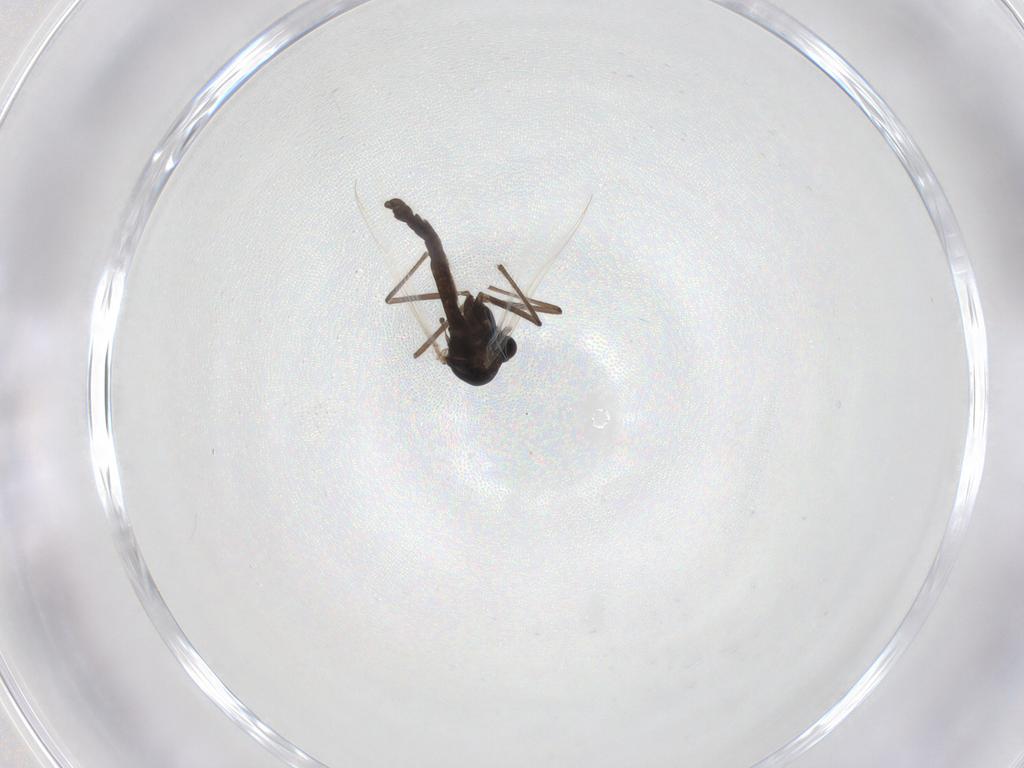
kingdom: Animalia
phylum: Arthropoda
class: Insecta
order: Diptera
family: Chironomidae
